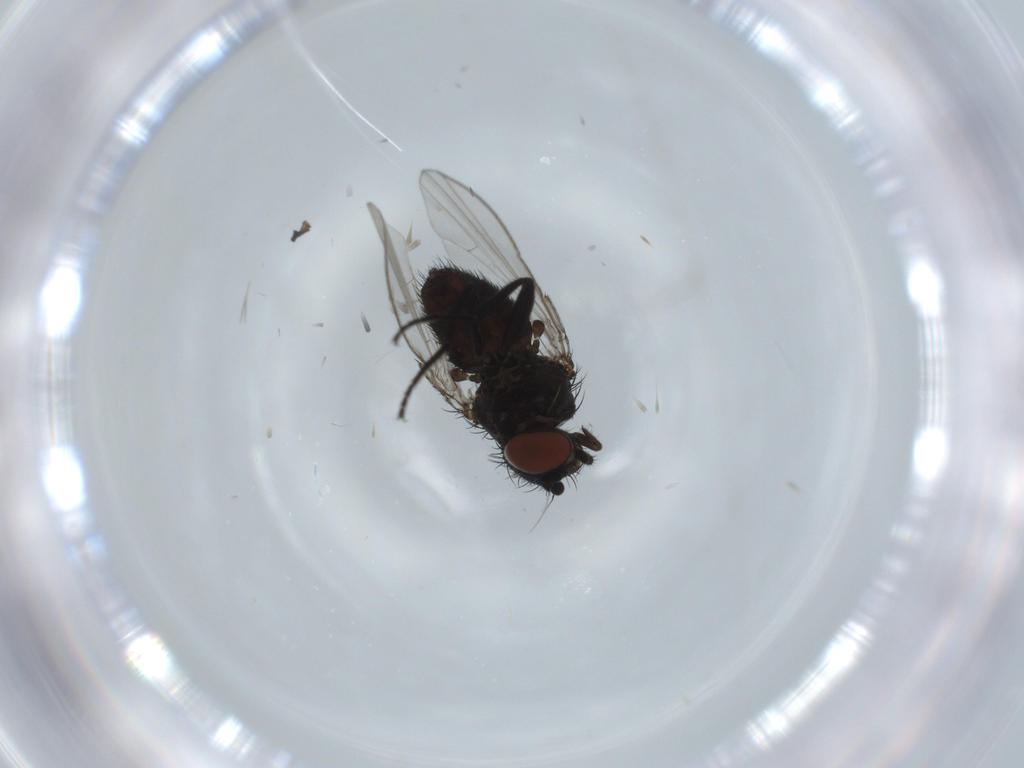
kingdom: Animalia
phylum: Arthropoda
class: Insecta
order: Diptera
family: Milichiidae
